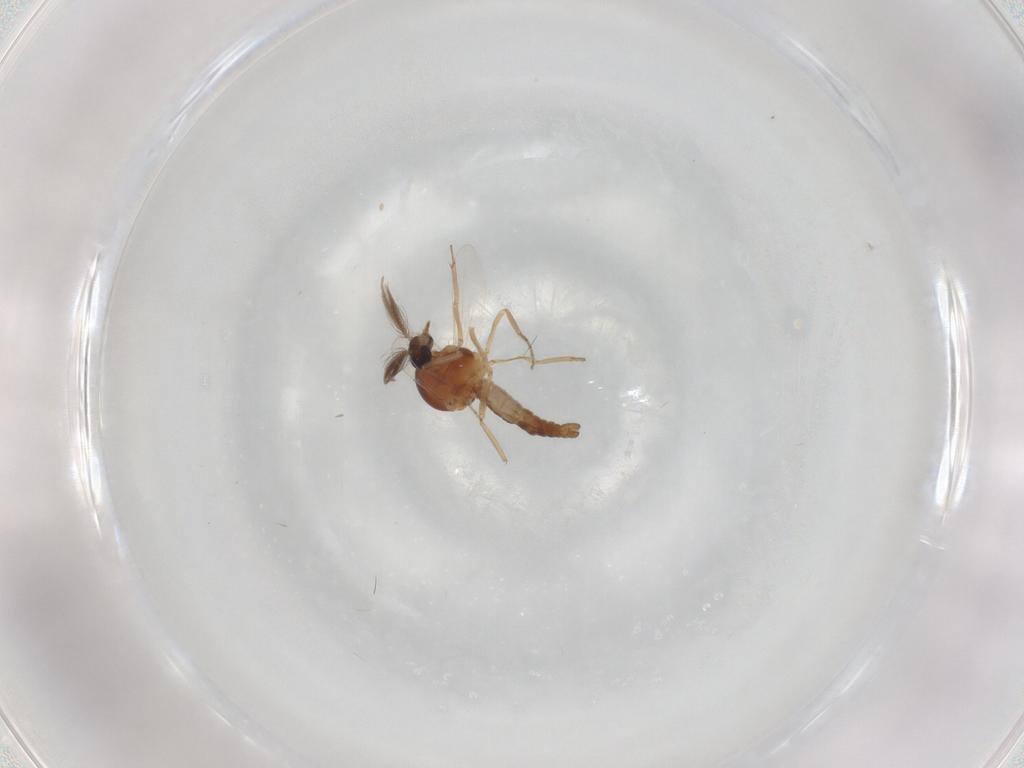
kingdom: Animalia
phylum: Arthropoda
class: Insecta
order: Diptera
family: Ceratopogonidae
